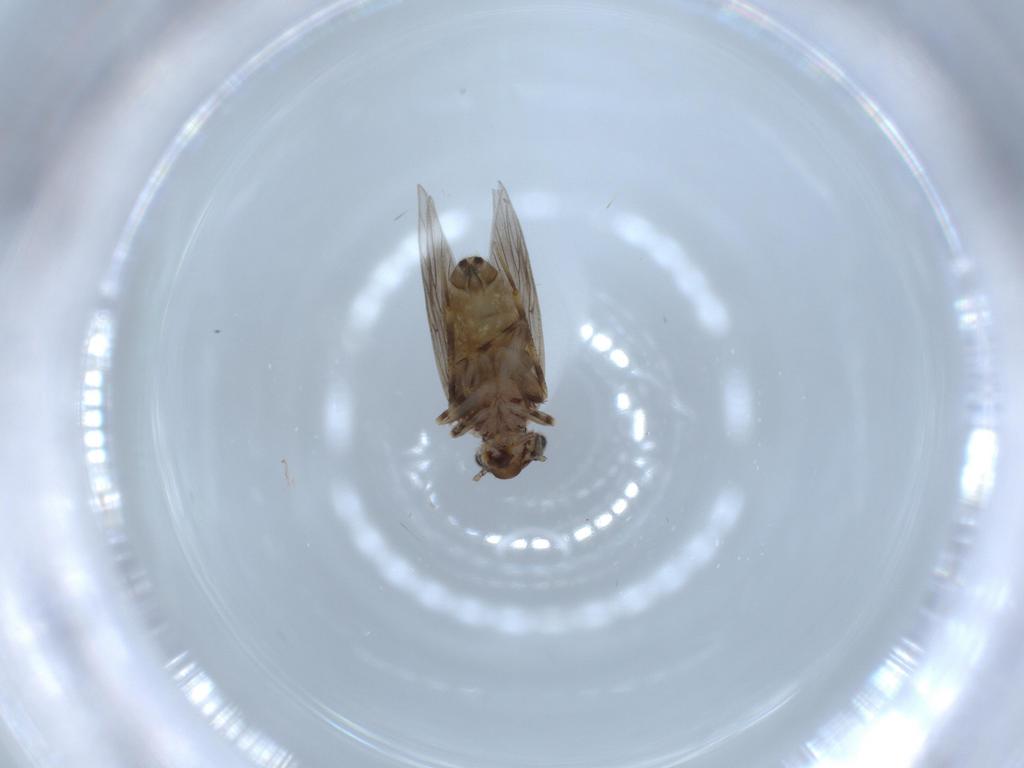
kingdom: Animalia
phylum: Arthropoda
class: Insecta
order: Psocodea
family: Lepidopsocidae
